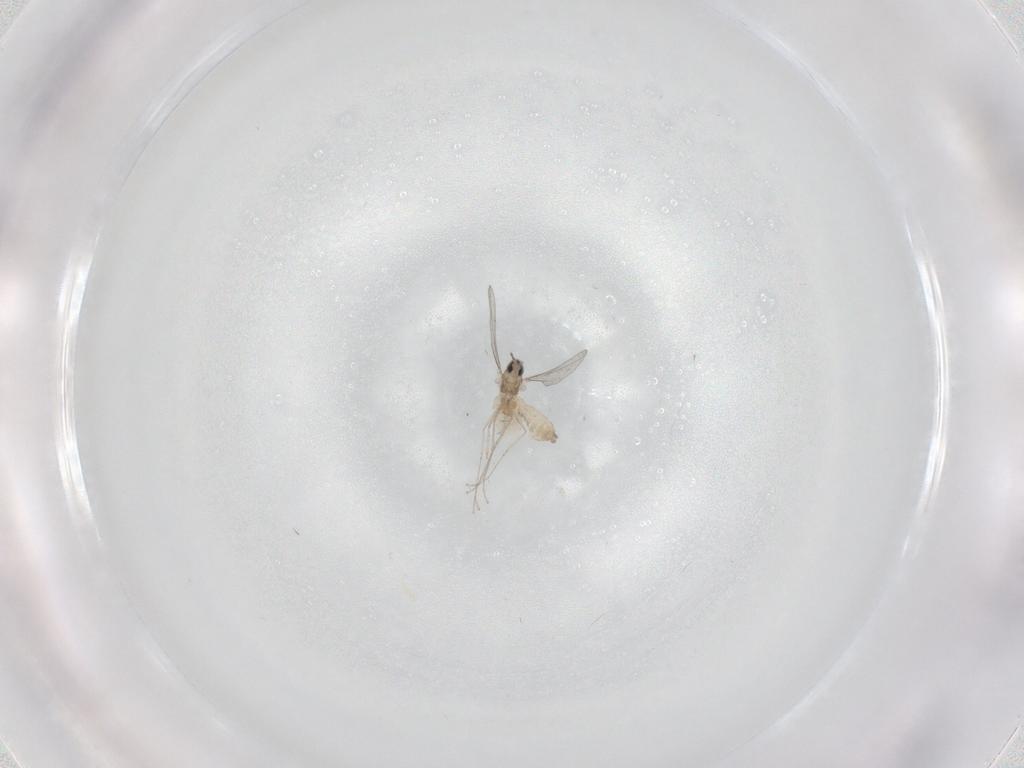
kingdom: Animalia
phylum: Arthropoda
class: Insecta
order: Diptera
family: Cecidomyiidae
